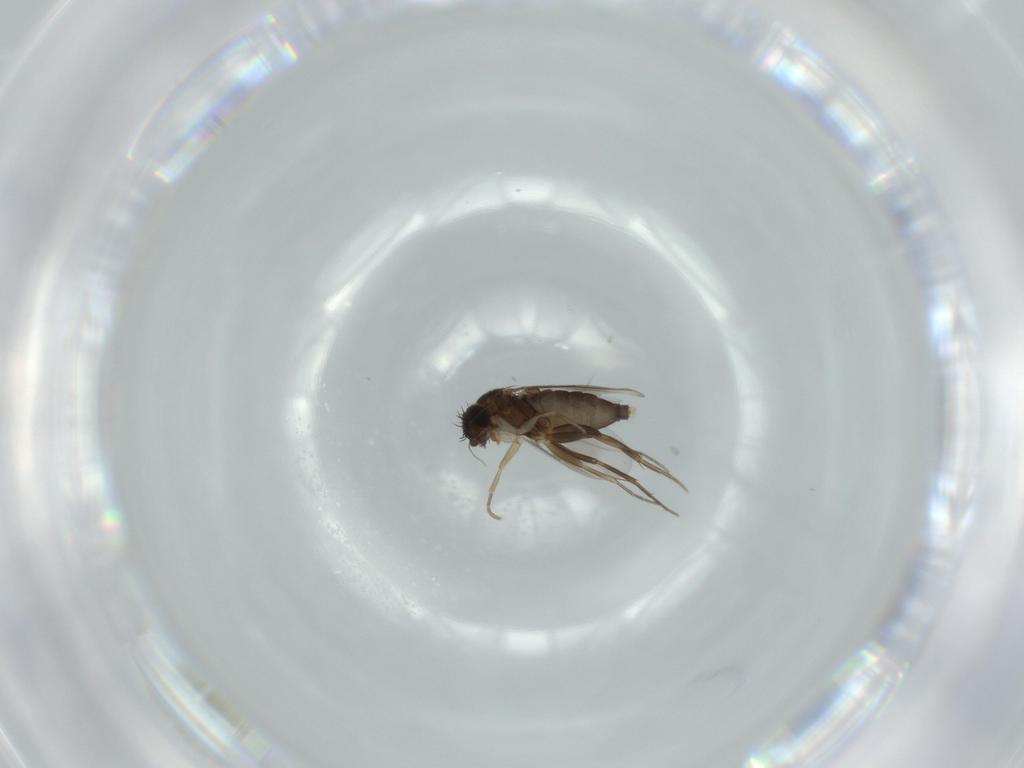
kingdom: Animalia
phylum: Arthropoda
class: Insecta
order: Diptera
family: Phoridae
